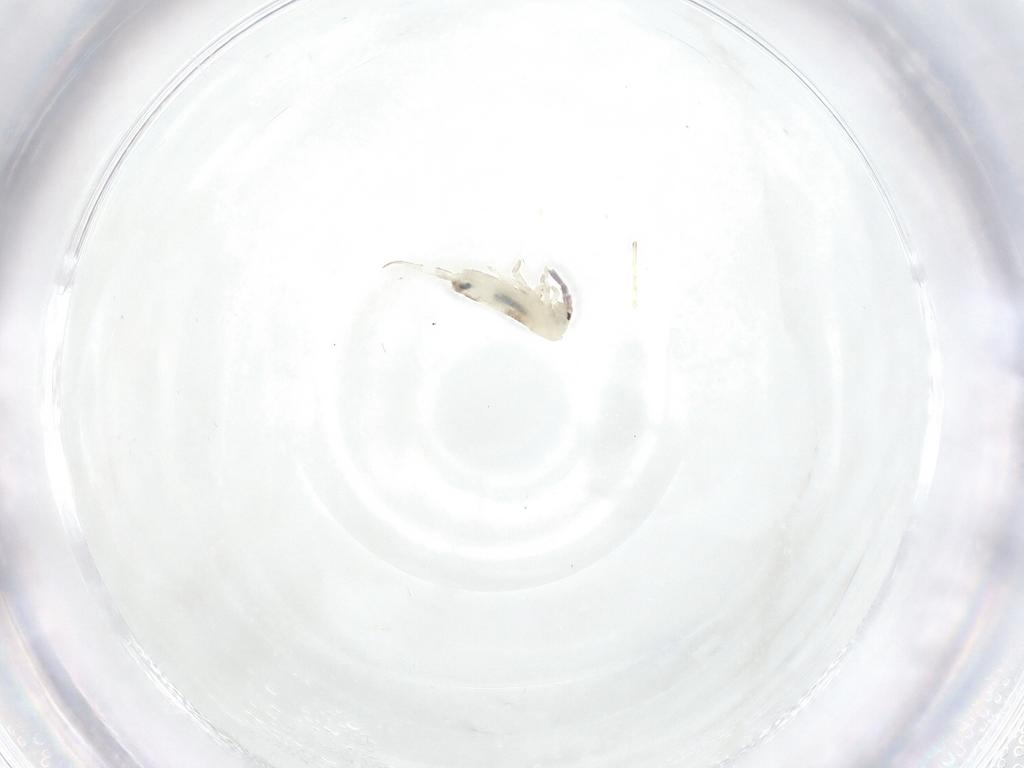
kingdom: Animalia
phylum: Arthropoda
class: Collembola
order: Entomobryomorpha
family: Entomobryidae
